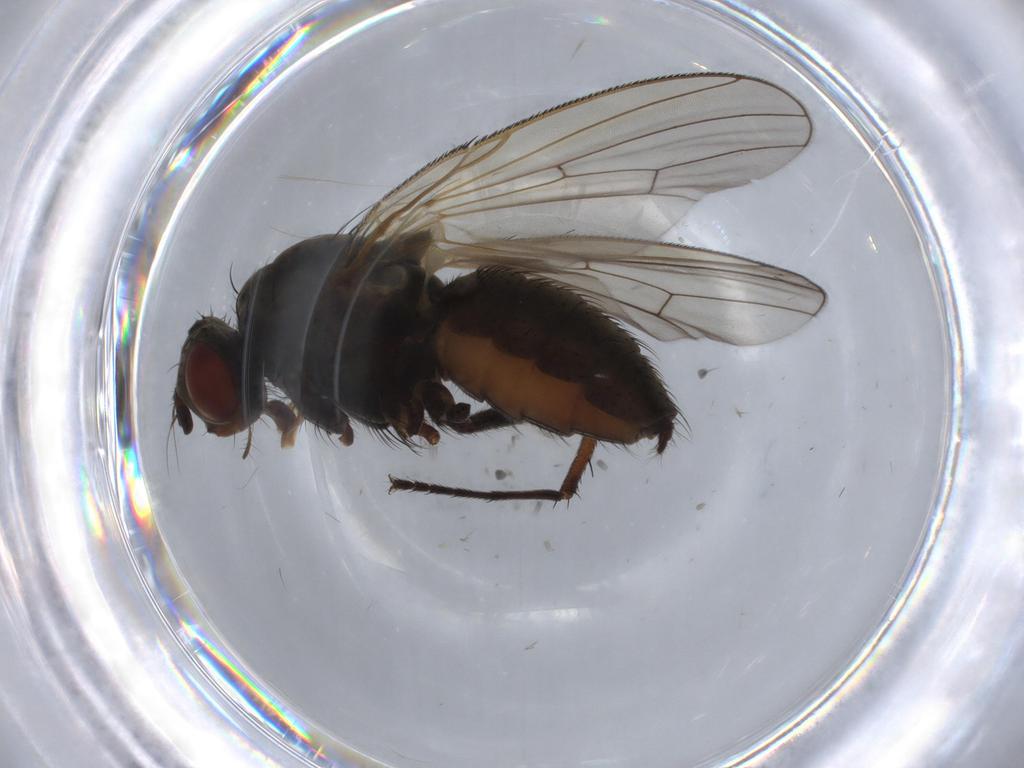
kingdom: Animalia
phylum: Arthropoda
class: Insecta
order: Diptera
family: Anthomyiidae
